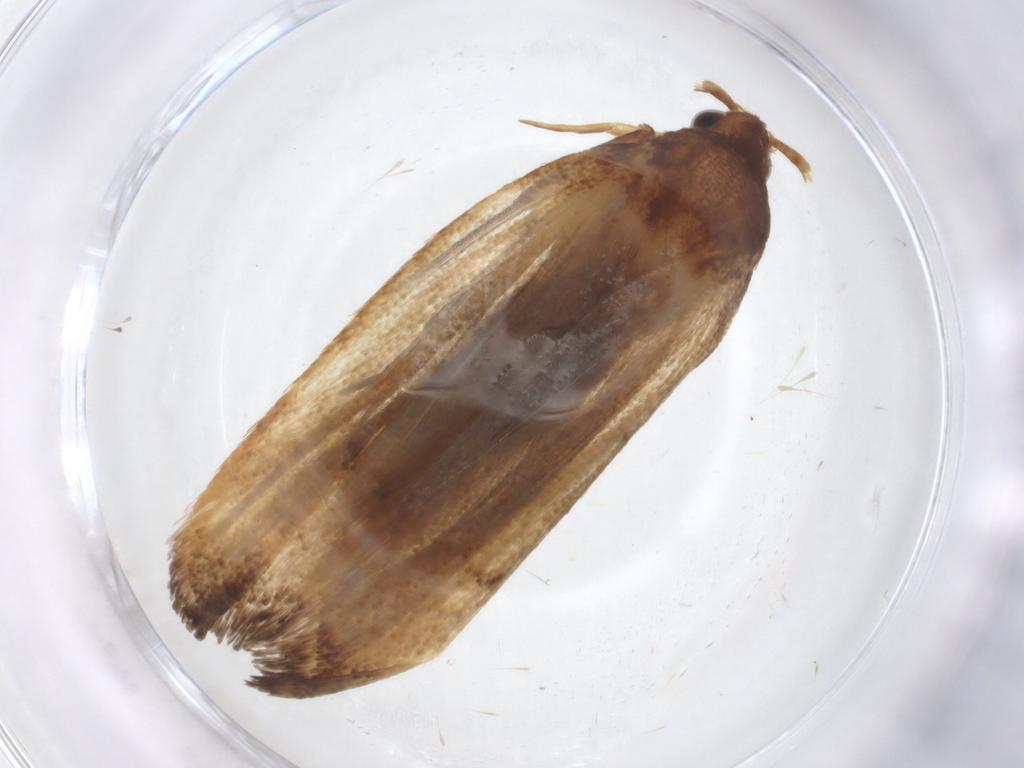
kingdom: Animalia
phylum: Arthropoda
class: Insecta
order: Lepidoptera
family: Lecithoceridae
